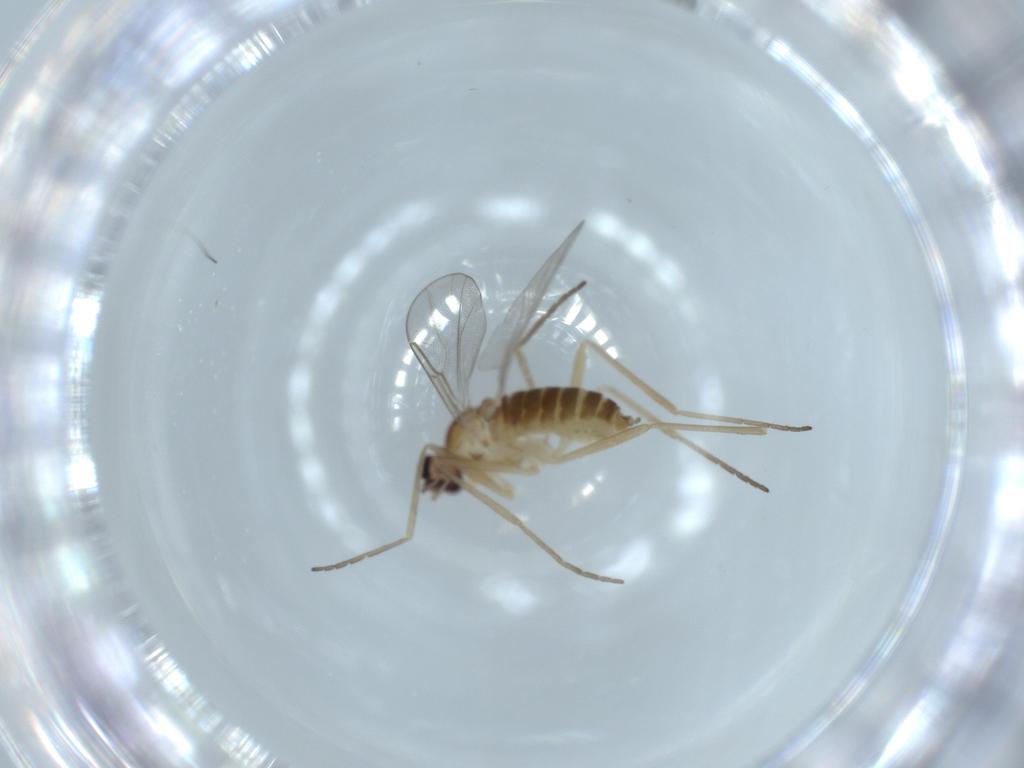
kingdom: Animalia
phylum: Arthropoda
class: Insecta
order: Diptera
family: Cecidomyiidae
